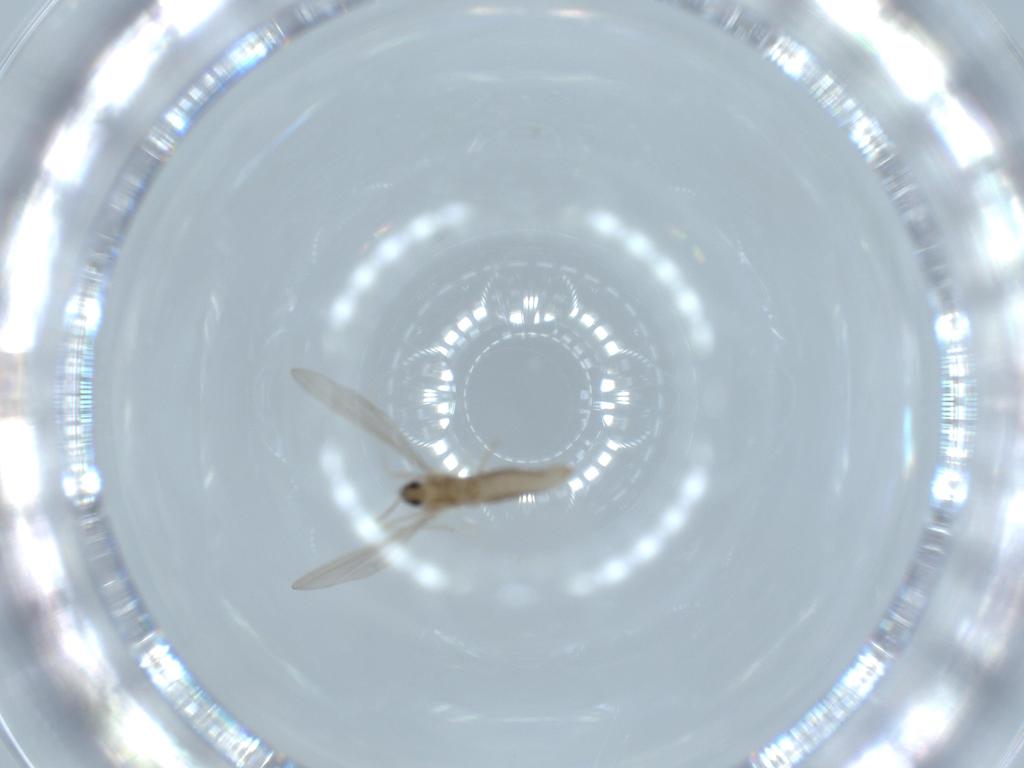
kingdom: Animalia
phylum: Arthropoda
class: Insecta
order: Diptera
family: Cecidomyiidae
